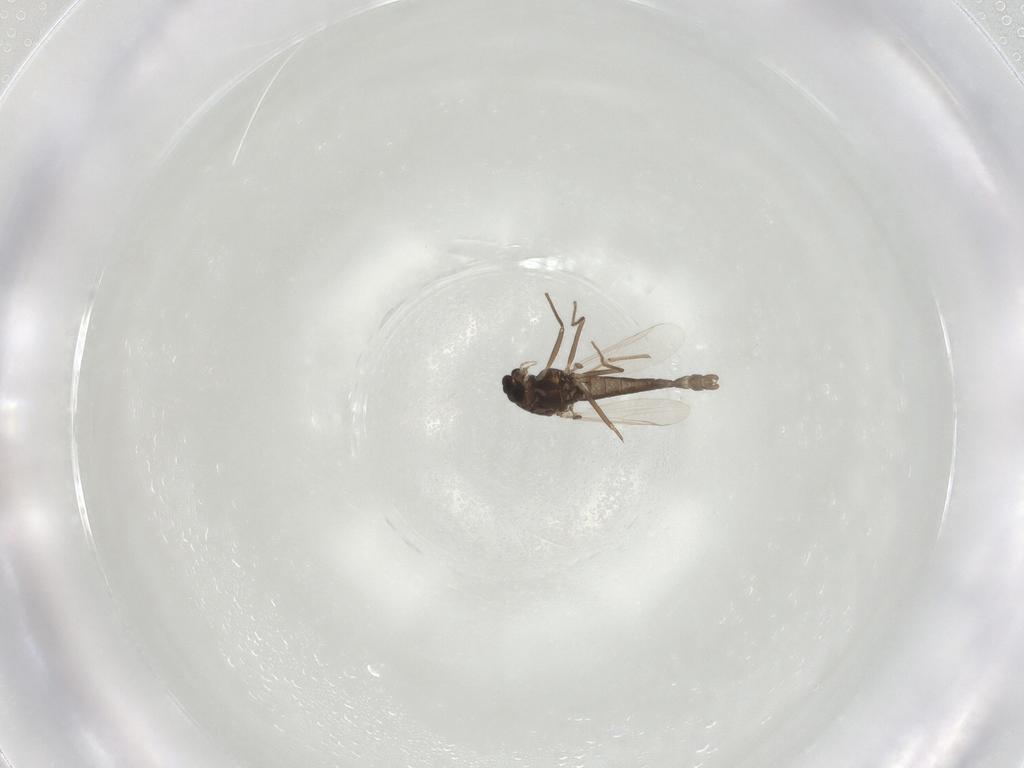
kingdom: Animalia
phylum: Arthropoda
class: Insecta
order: Diptera
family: Chironomidae
